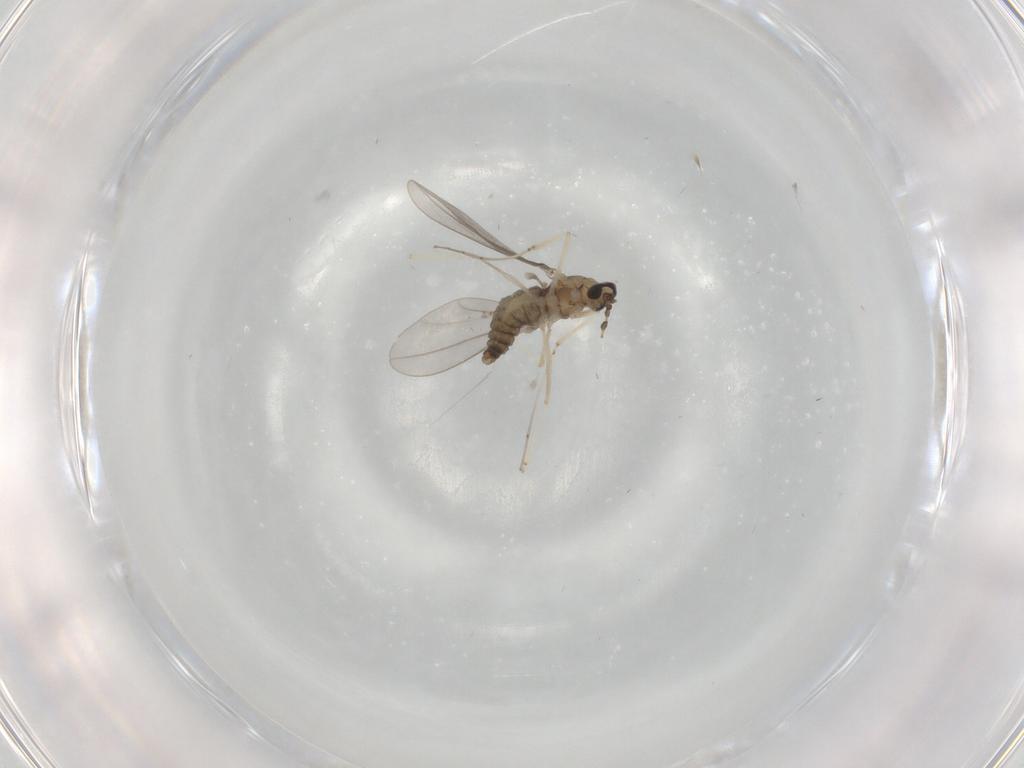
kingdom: Animalia
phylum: Arthropoda
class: Insecta
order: Diptera
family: Cecidomyiidae
